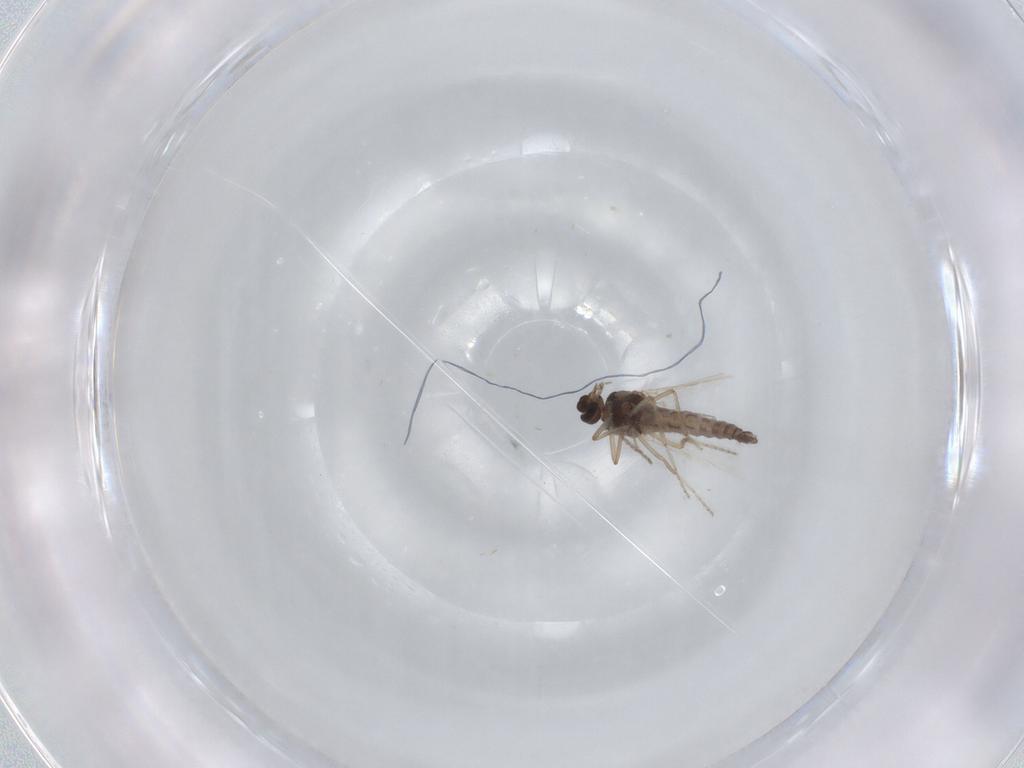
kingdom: Animalia
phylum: Arthropoda
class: Insecta
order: Diptera
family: Ceratopogonidae
